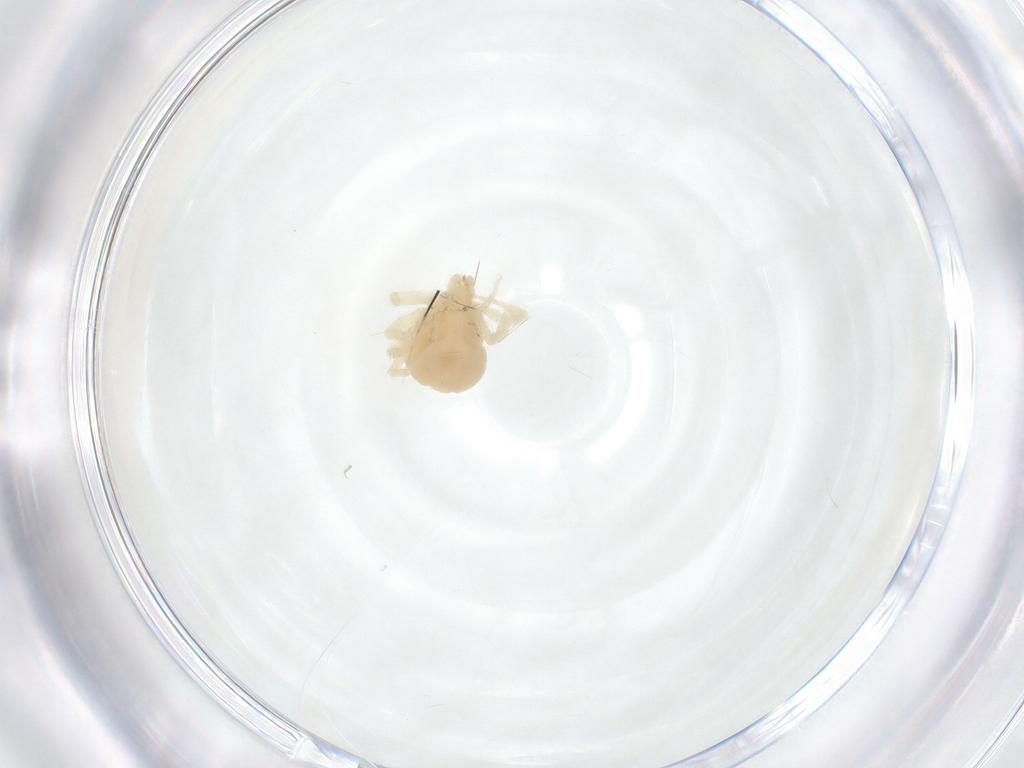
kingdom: Animalia
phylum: Arthropoda
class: Arachnida
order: Trombidiformes
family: Anystidae
